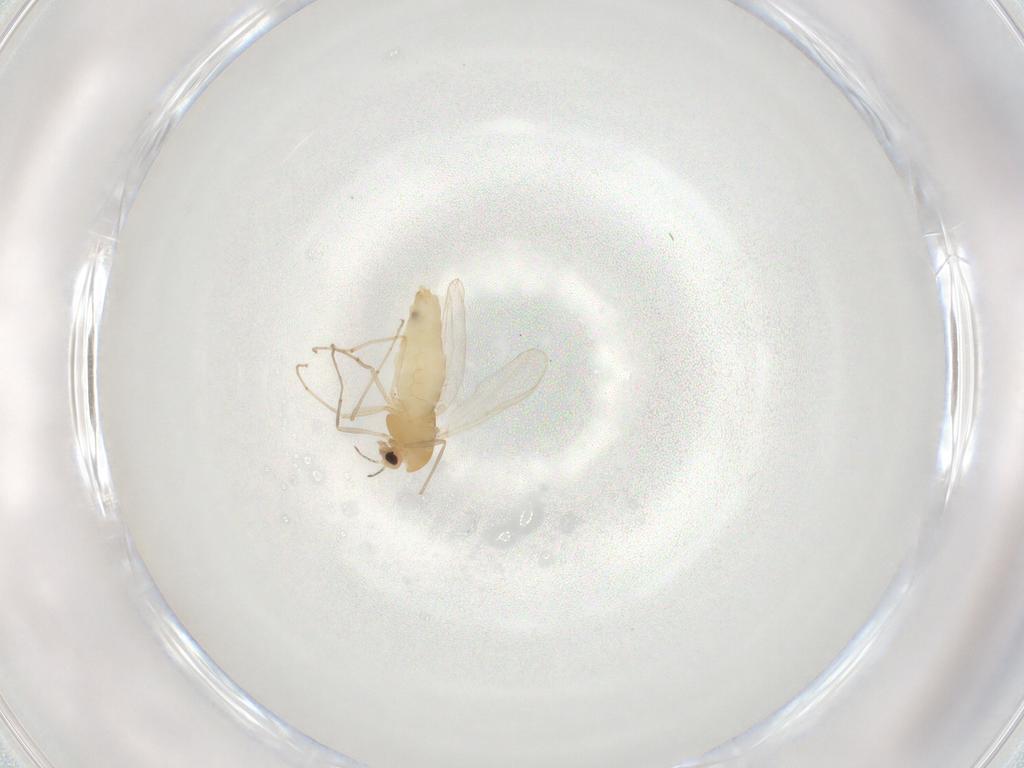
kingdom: Animalia
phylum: Arthropoda
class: Insecta
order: Diptera
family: Chironomidae
